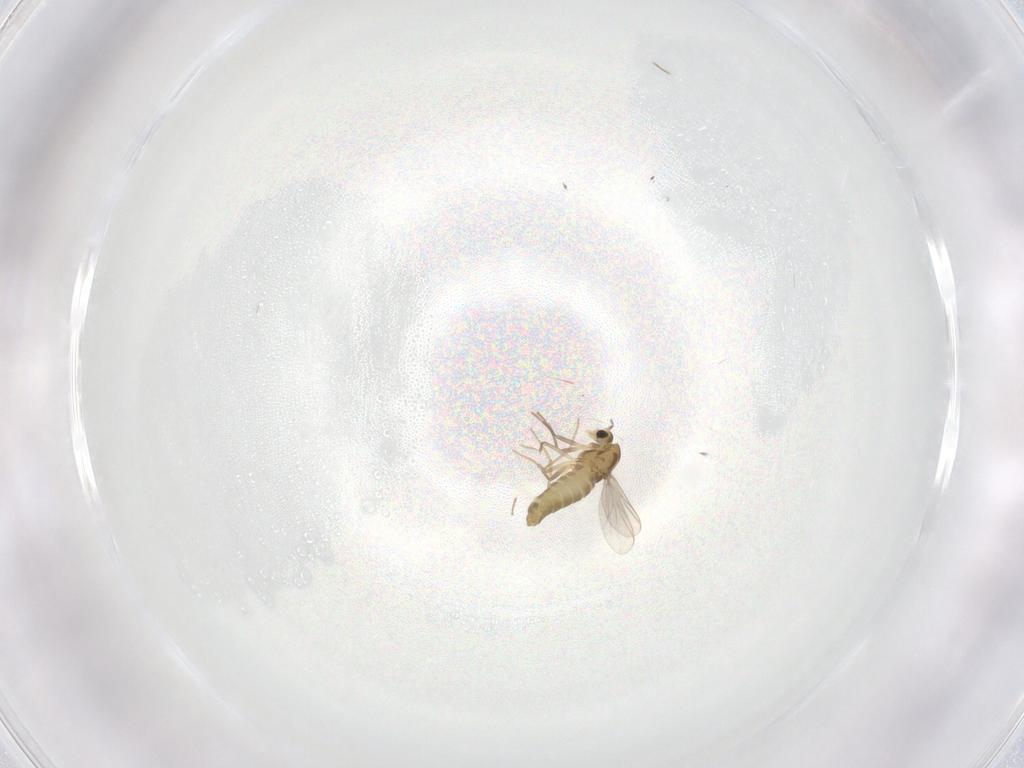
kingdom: Animalia
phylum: Arthropoda
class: Insecta
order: Diptera
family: Chironomidae
